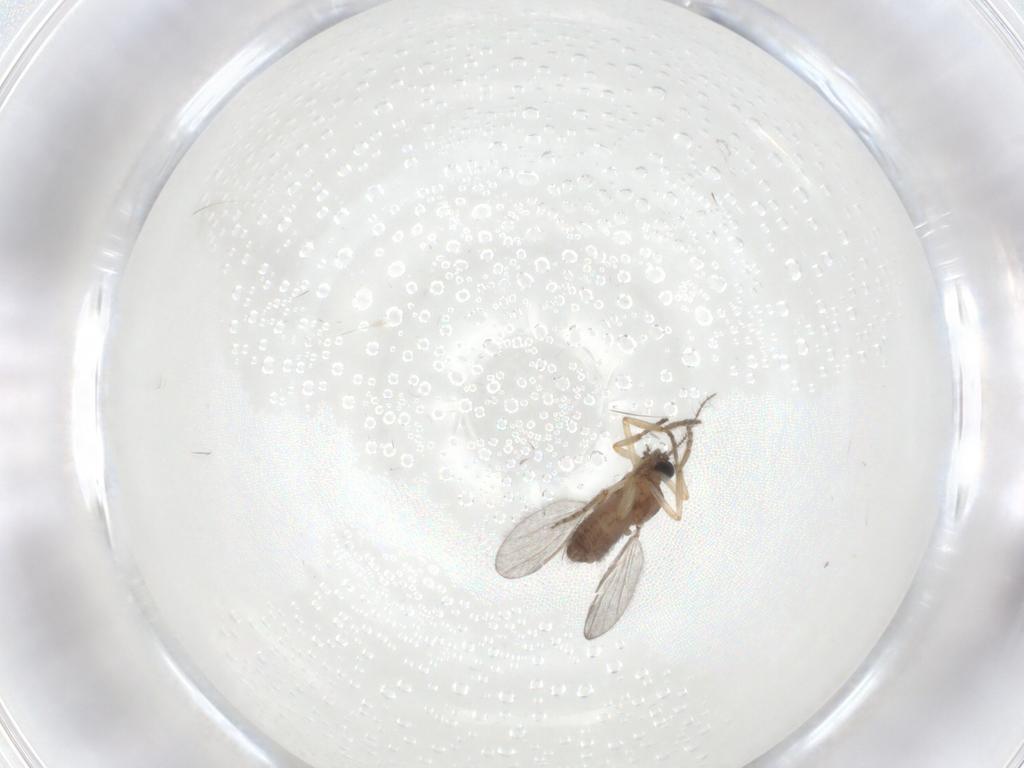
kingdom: Animalia
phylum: Arthropoda
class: Insecta
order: Diptera
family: Ceratopogonidae
